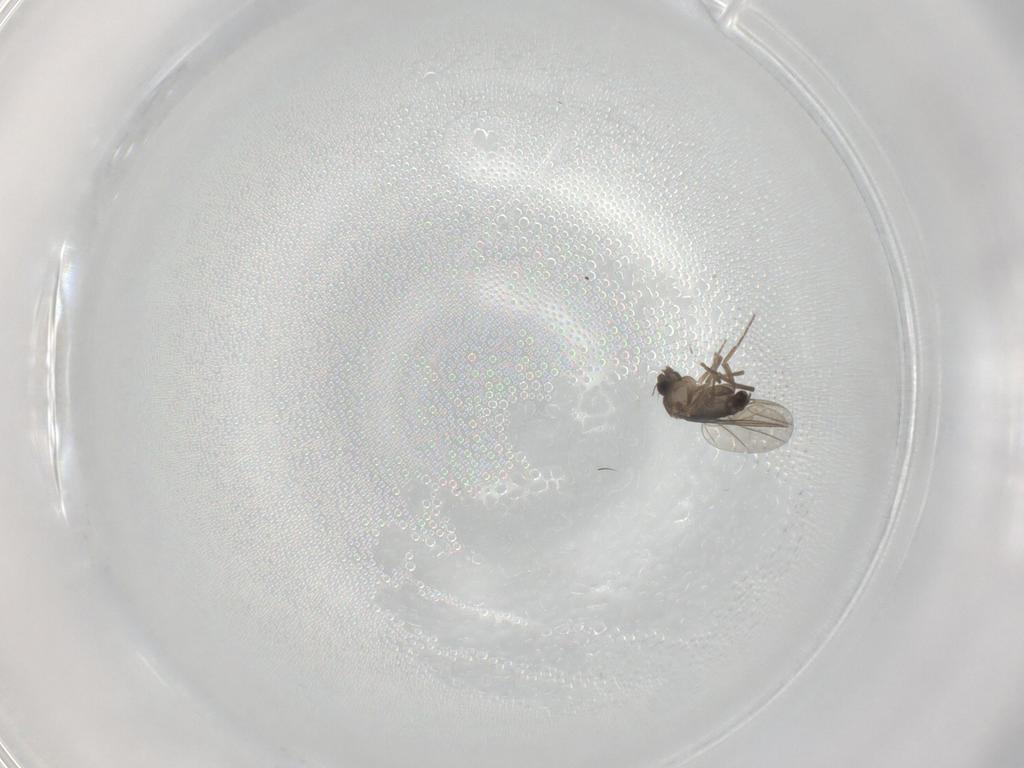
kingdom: Animalia
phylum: Arthropoda
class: Insecta
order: Diptera
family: Phoridae
